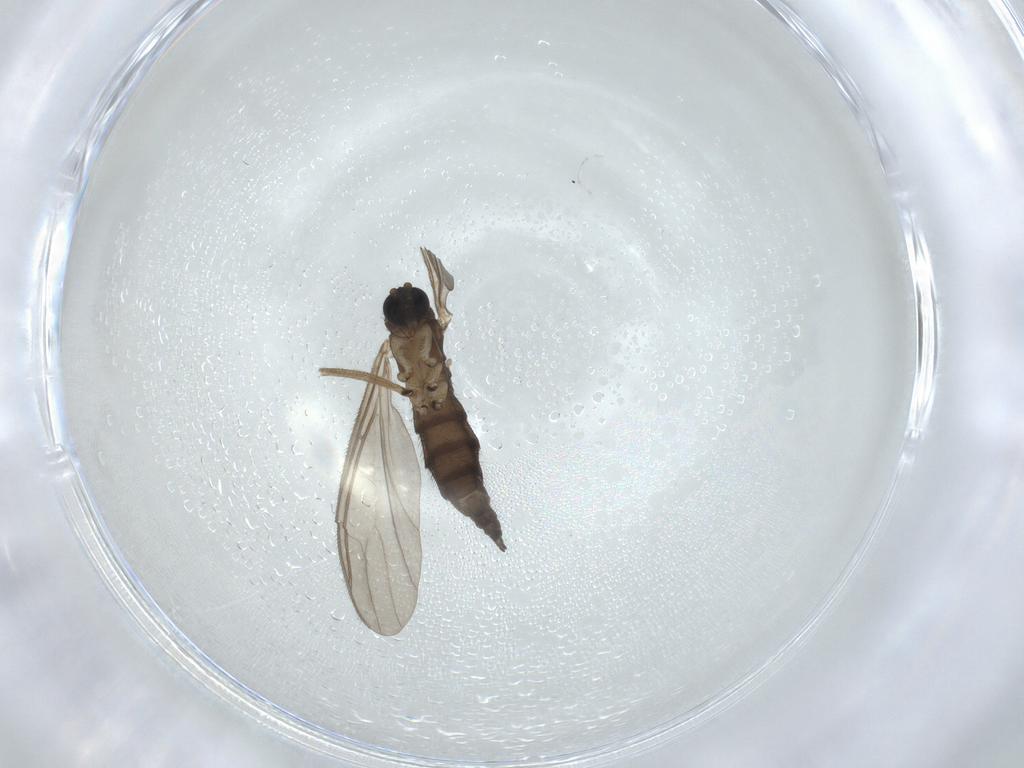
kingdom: Animalia
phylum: Arthropoda
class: Insecta
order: Diptera
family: Sciaridae
